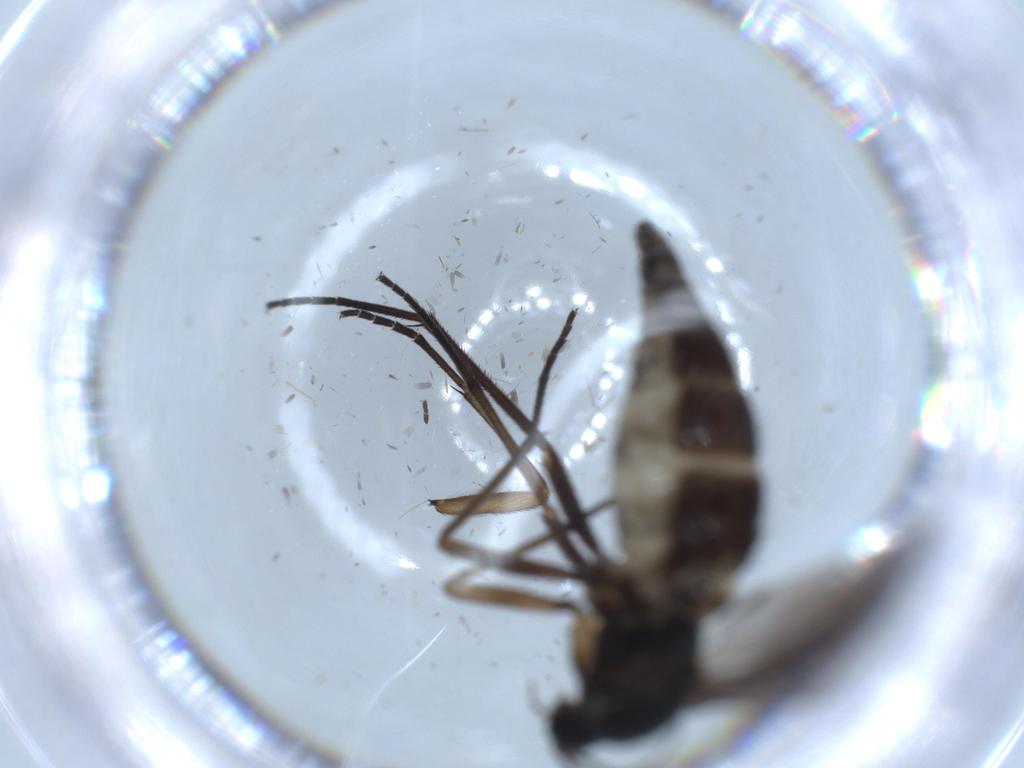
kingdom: Animalia
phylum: Arthropoda
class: Insecta
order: Diptera
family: Sciaridae
